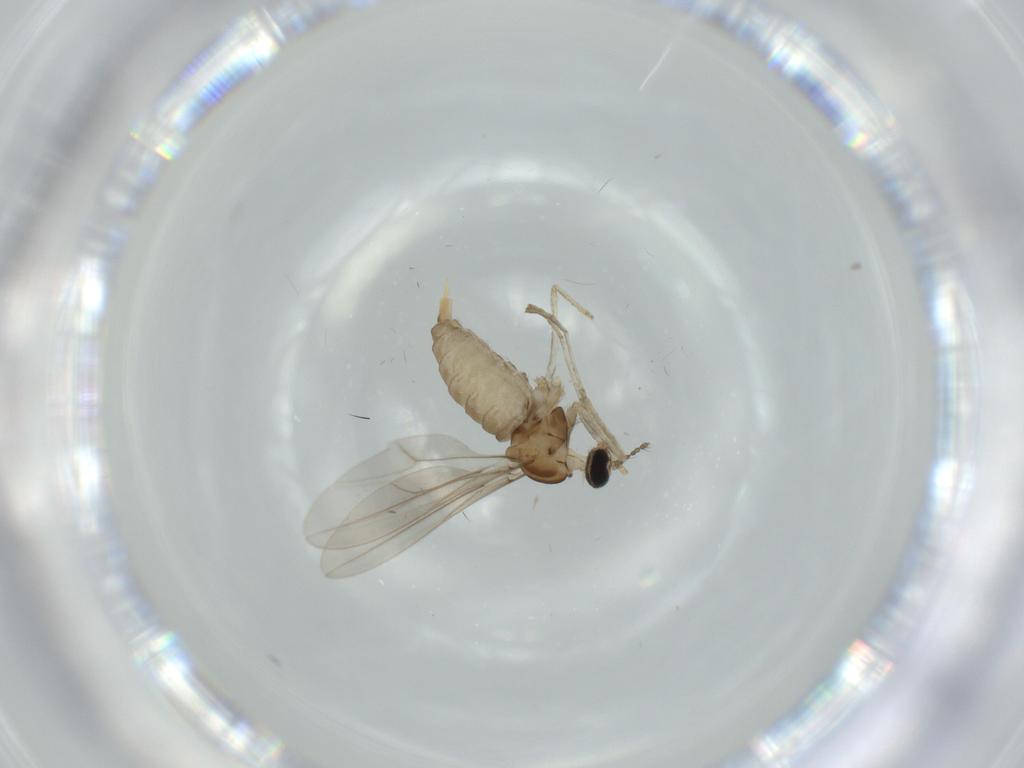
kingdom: Animalia
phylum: Arthropoda
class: Insecta
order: Diptera
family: Cecidomyiidae
